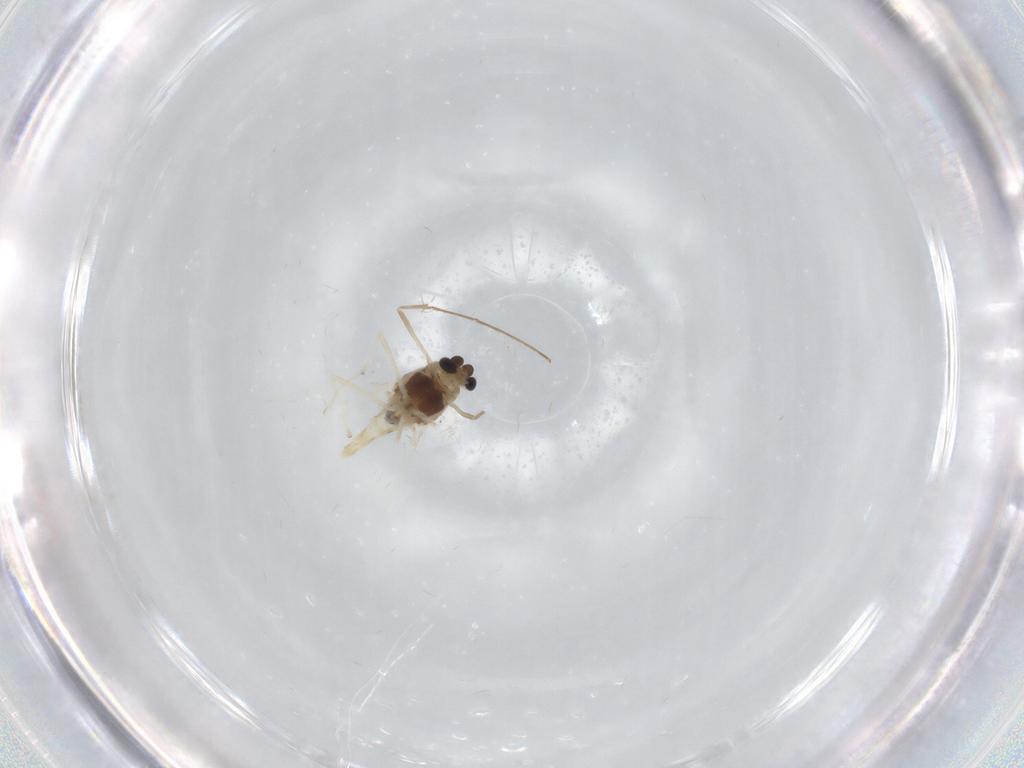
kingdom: Animalia
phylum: Arthropoda
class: Insecta
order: Diptera
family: Chironomidae
